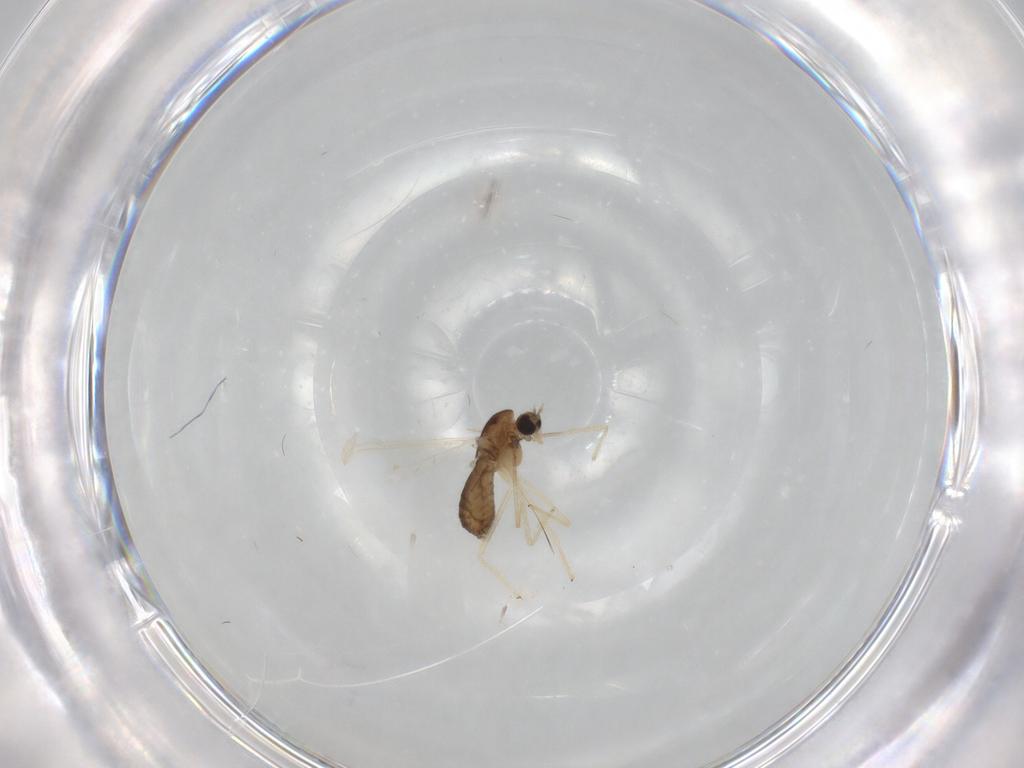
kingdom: Animalia
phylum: Arthropoda
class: Insecta
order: Diptera
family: Chironomidae
